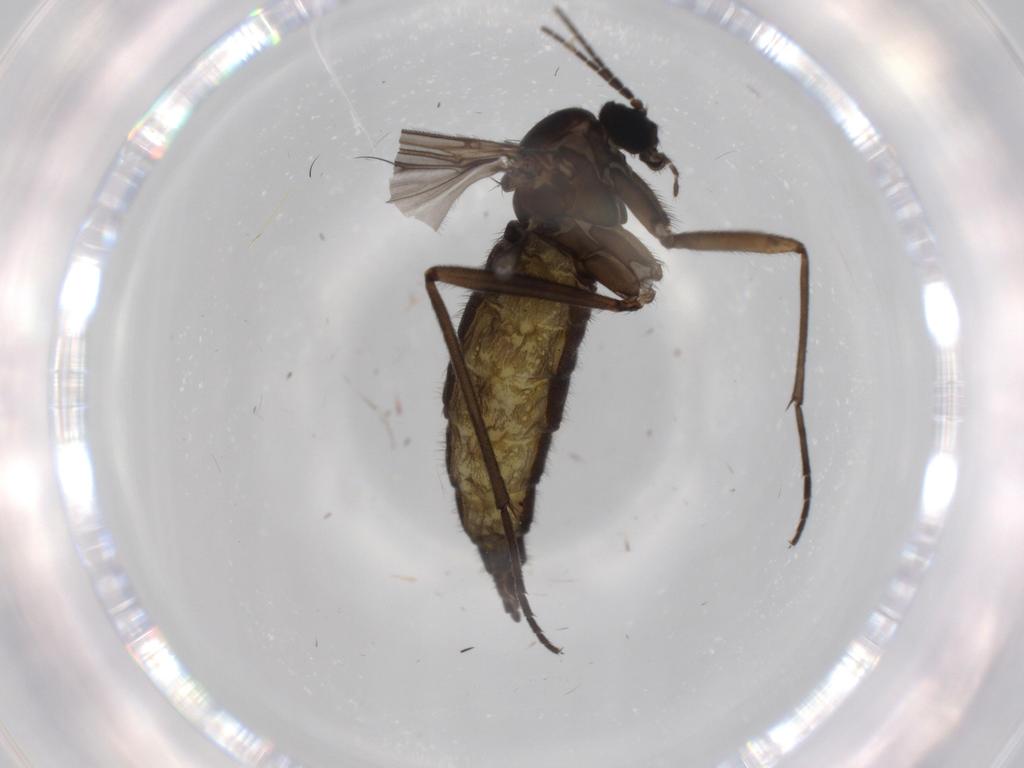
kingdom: Animalia
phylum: Arthropoda
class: Insecta
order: Diptera
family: Sciaridae
